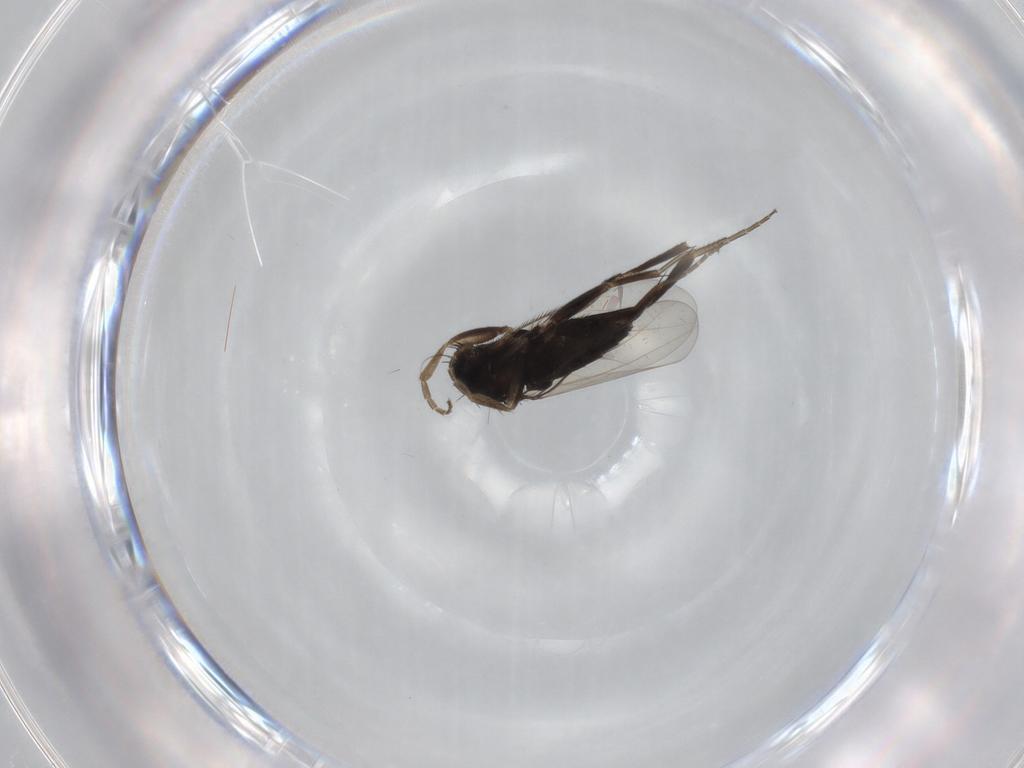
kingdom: Animalia
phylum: Arthropoda
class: Insecta
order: Diptera
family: Phoridae
